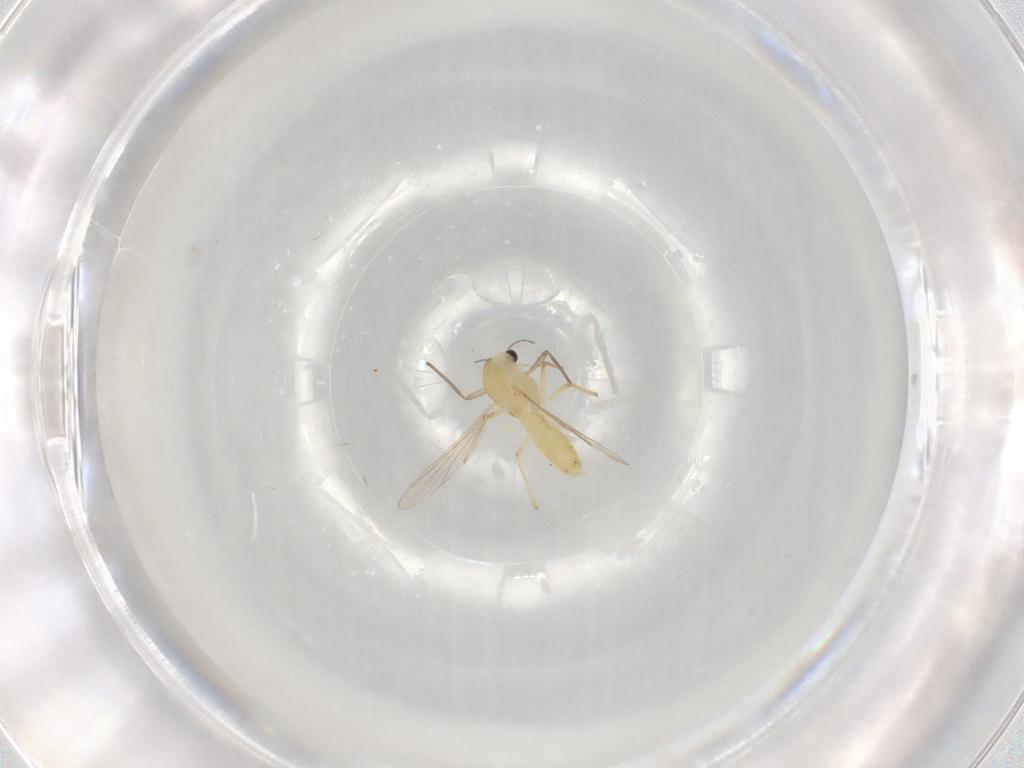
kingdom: Animalia
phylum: Arthropoda
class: Insecta
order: Diptera
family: Chironomidae
